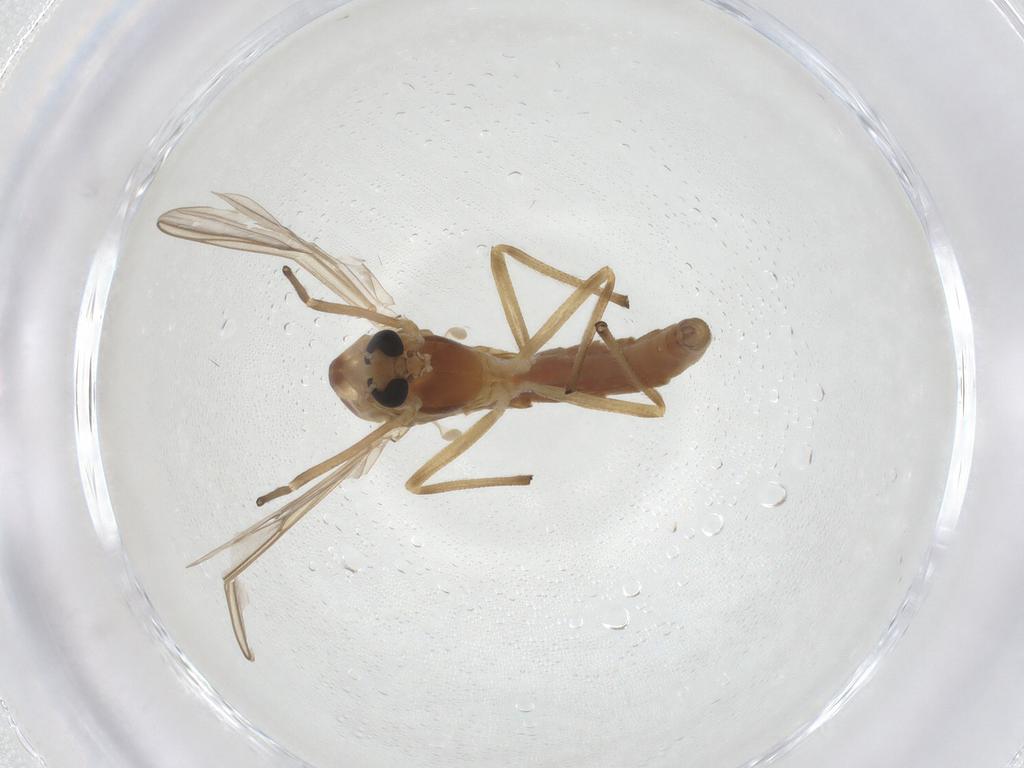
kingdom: Animalia
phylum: Arthropoda
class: Insecta
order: Diptera
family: Chironomidae
